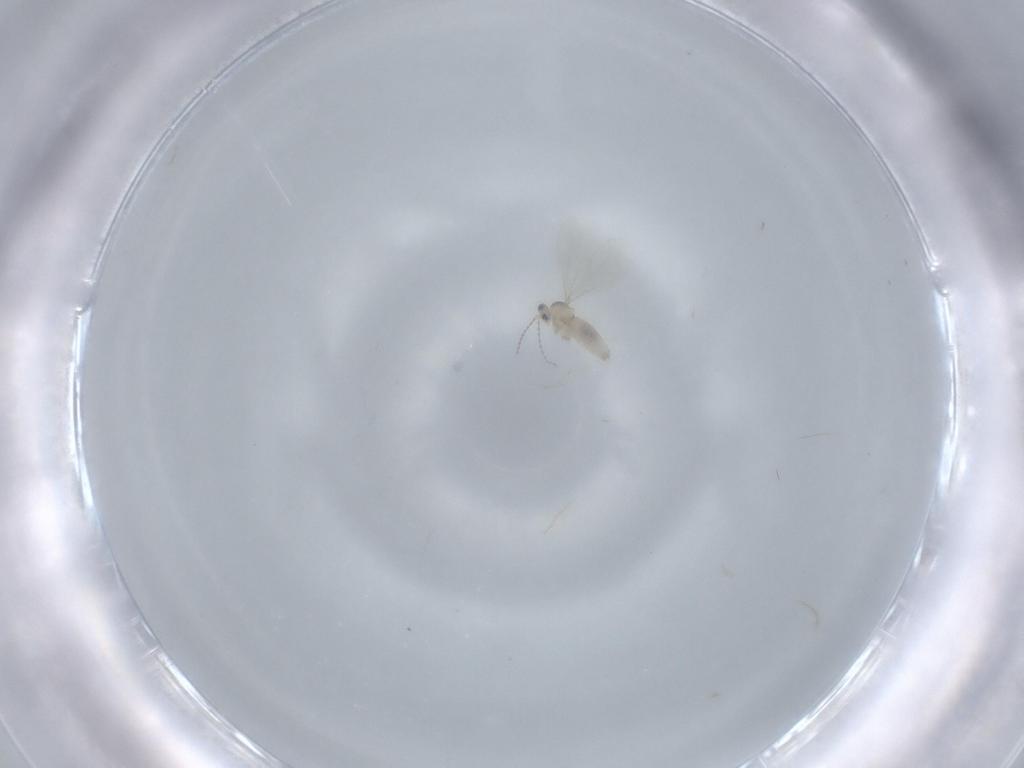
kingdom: Animalia
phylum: Arthropoda
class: Insecta
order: Diptera
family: Cecidomyiidae
